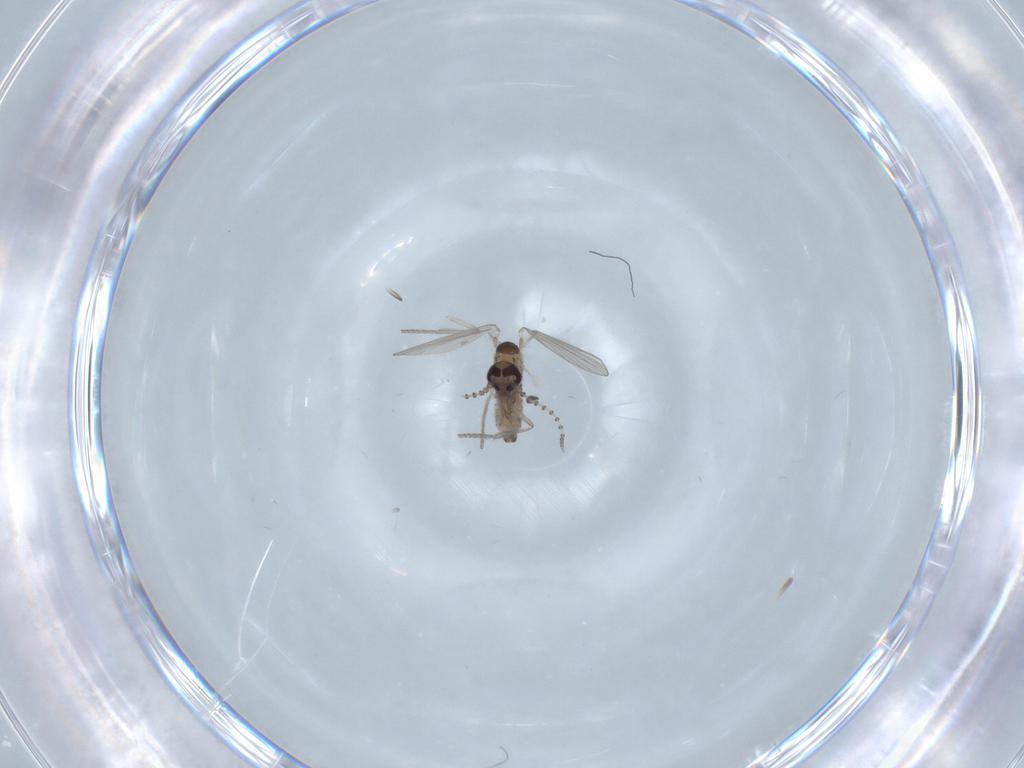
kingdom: Animalia
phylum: Arthropoda
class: Insecta
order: Diptera
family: Psychodidae
